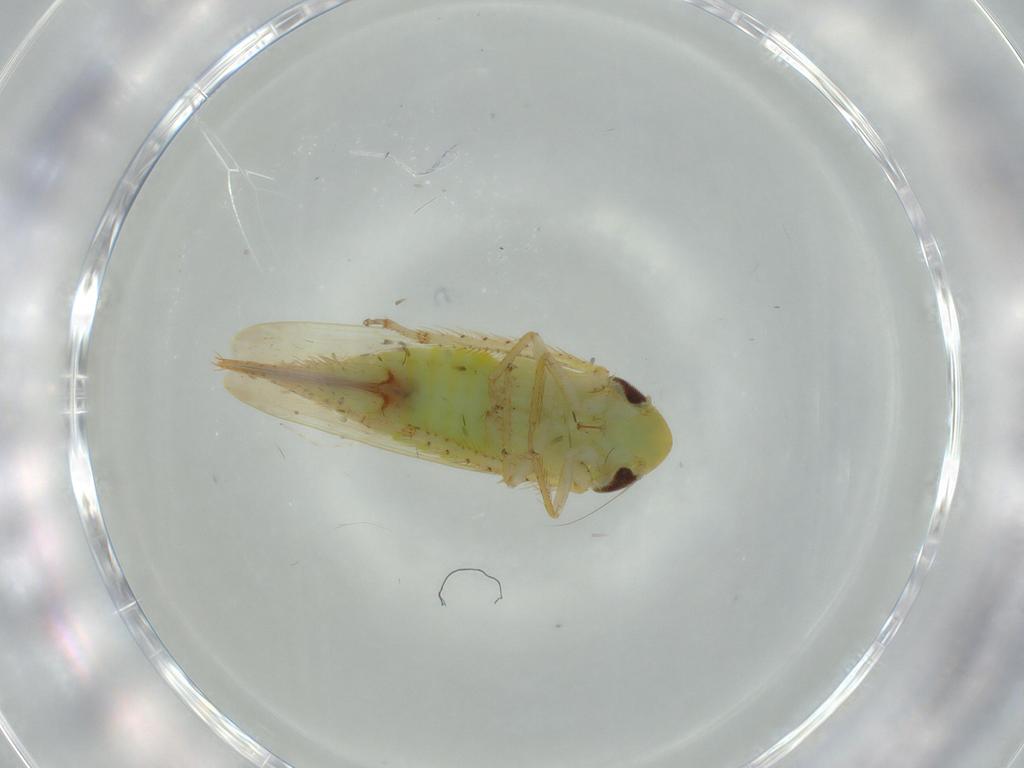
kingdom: Animalia
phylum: Arthropoda
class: Insecta
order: Hemiptera
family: Cicadellidae
